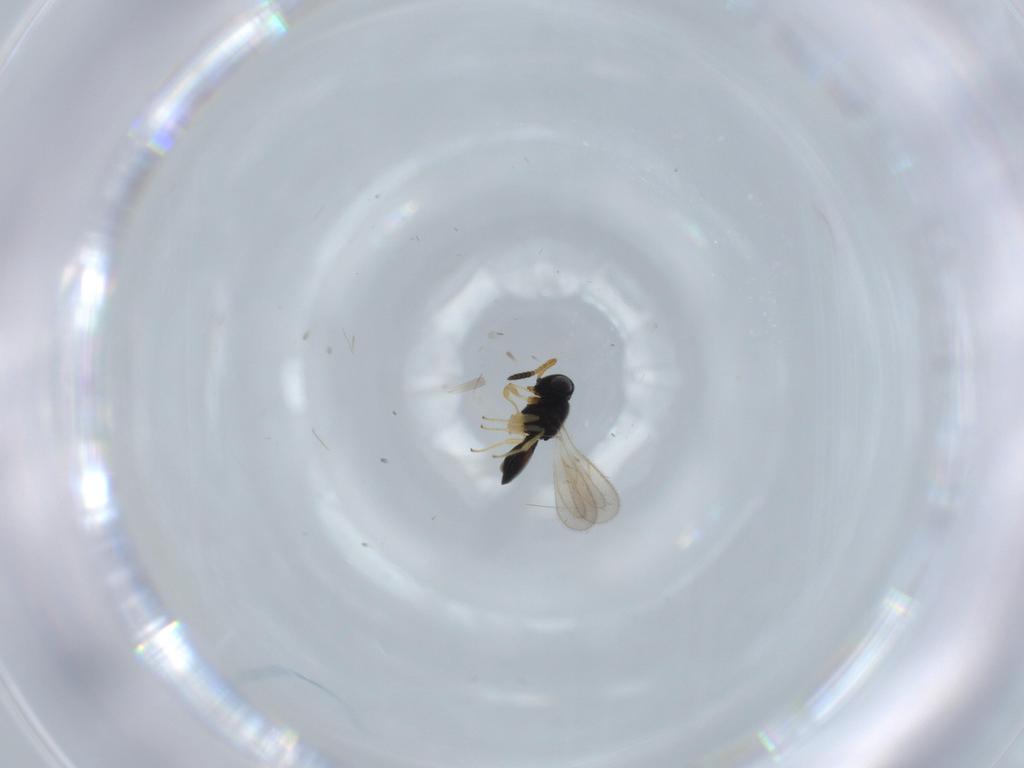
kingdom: Animalia
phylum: Arthropoda
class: Insecta
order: Hymenoptera
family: Scelionidae
